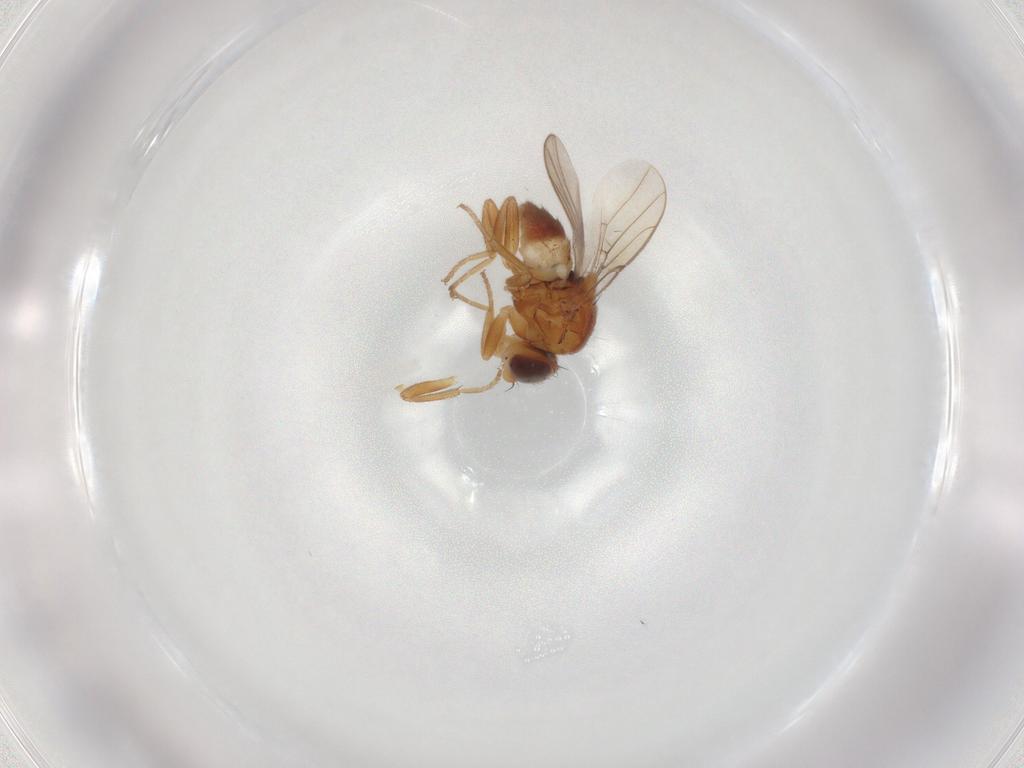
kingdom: Animalia
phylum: Arthropoda
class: Insecta
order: Diptera
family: Chloropidae
